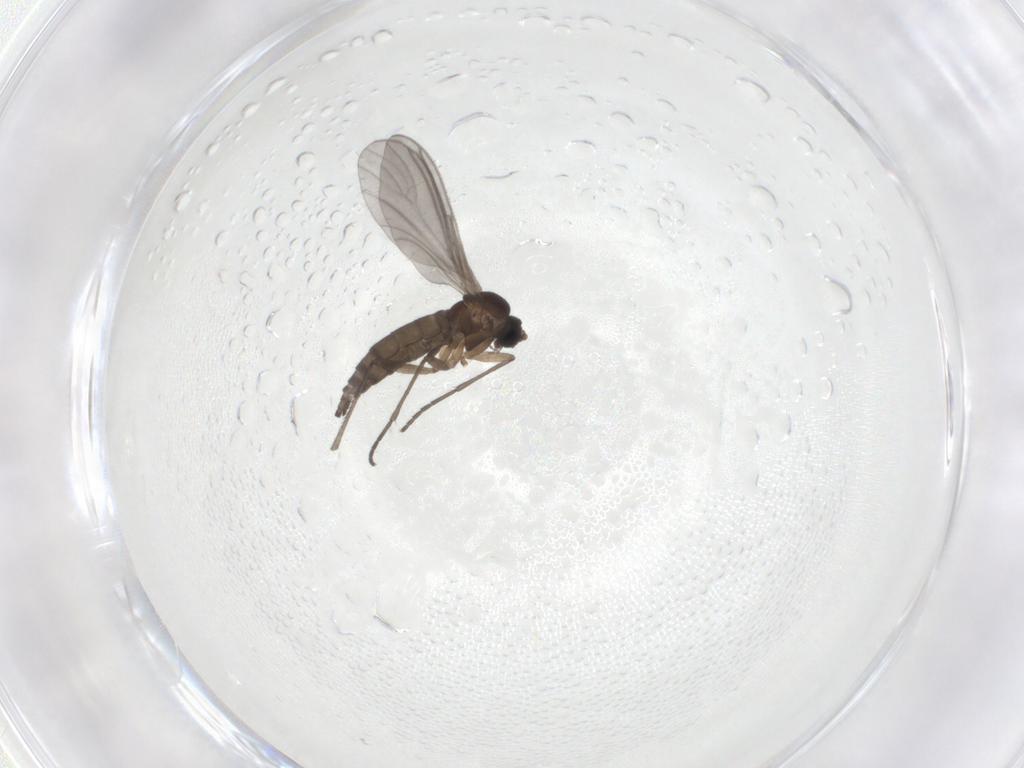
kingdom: Animalia
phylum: Arthropoda
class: Insecta
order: Diptera
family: Sciaridae
